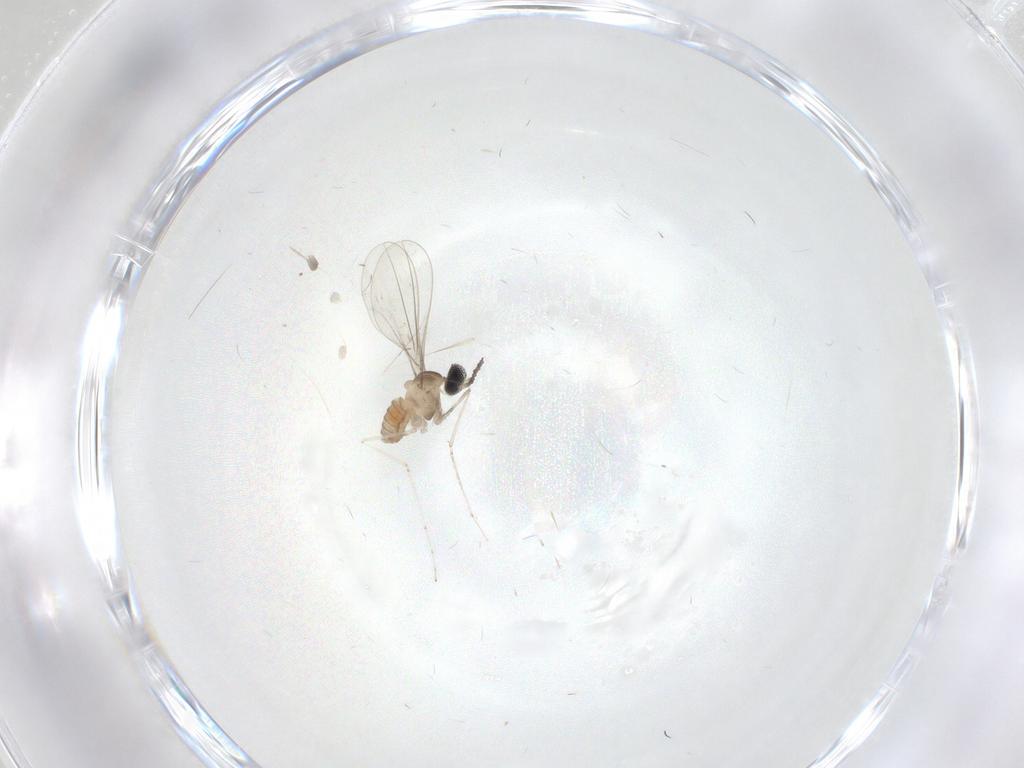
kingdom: Animalia
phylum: Arthropoda
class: Insecta
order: Diptera
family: Cecidomyiidae
